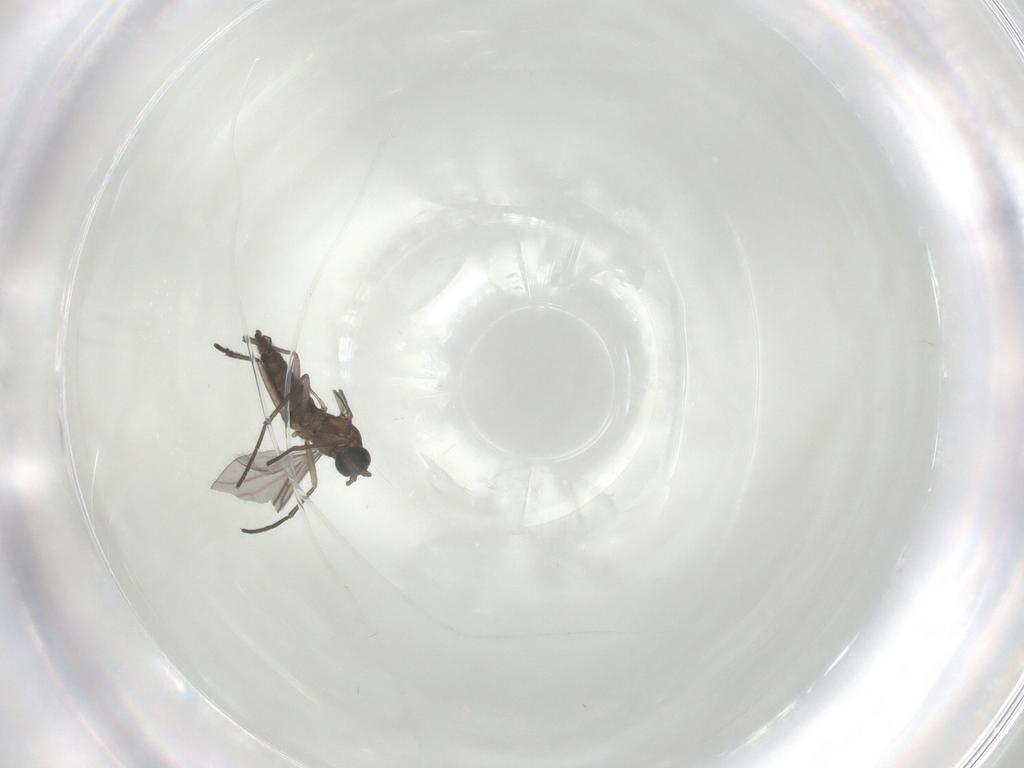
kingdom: Animalia
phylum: Arthropoda
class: Insecta
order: Diptera
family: Sciaridae
